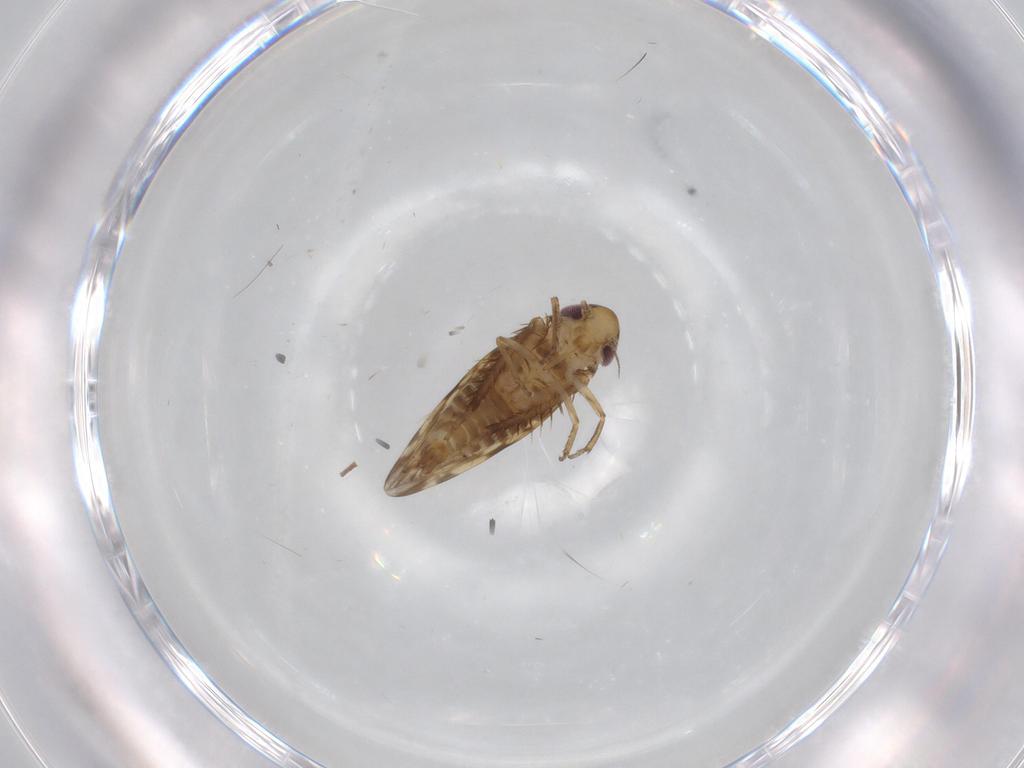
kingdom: Animalia
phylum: Arthropoda
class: Insecta
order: Hemiptera
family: Cicadellidae
